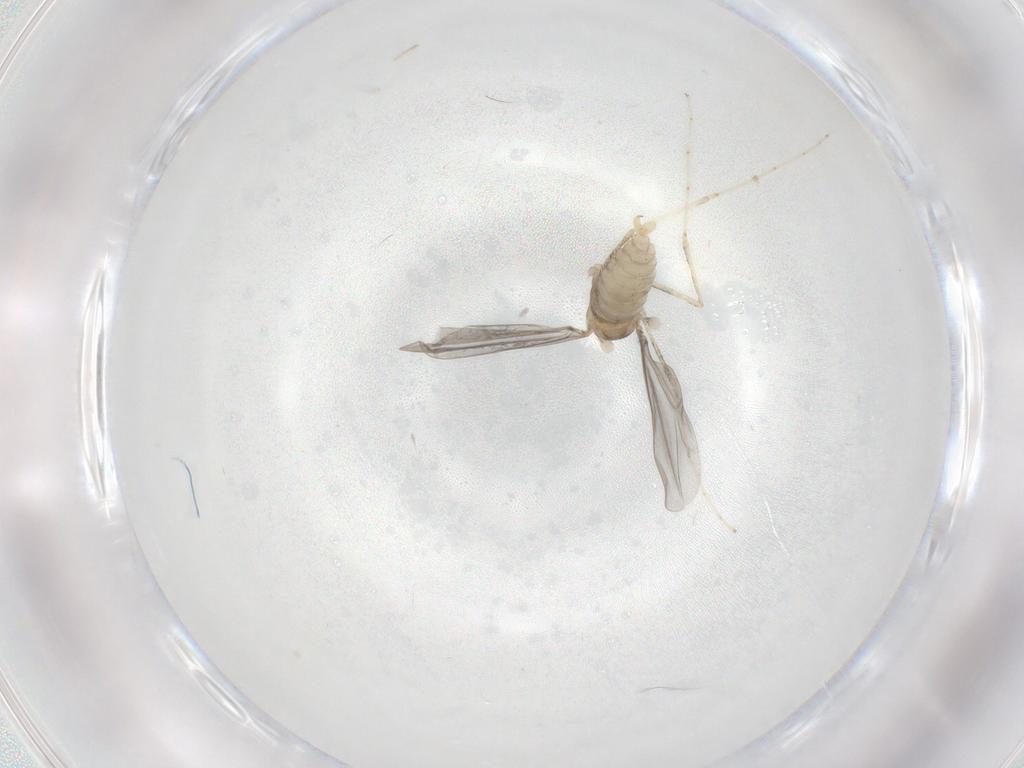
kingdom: Animalia
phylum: Arthropoda
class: Insecta
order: Diptera
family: Cecidomyiidae
